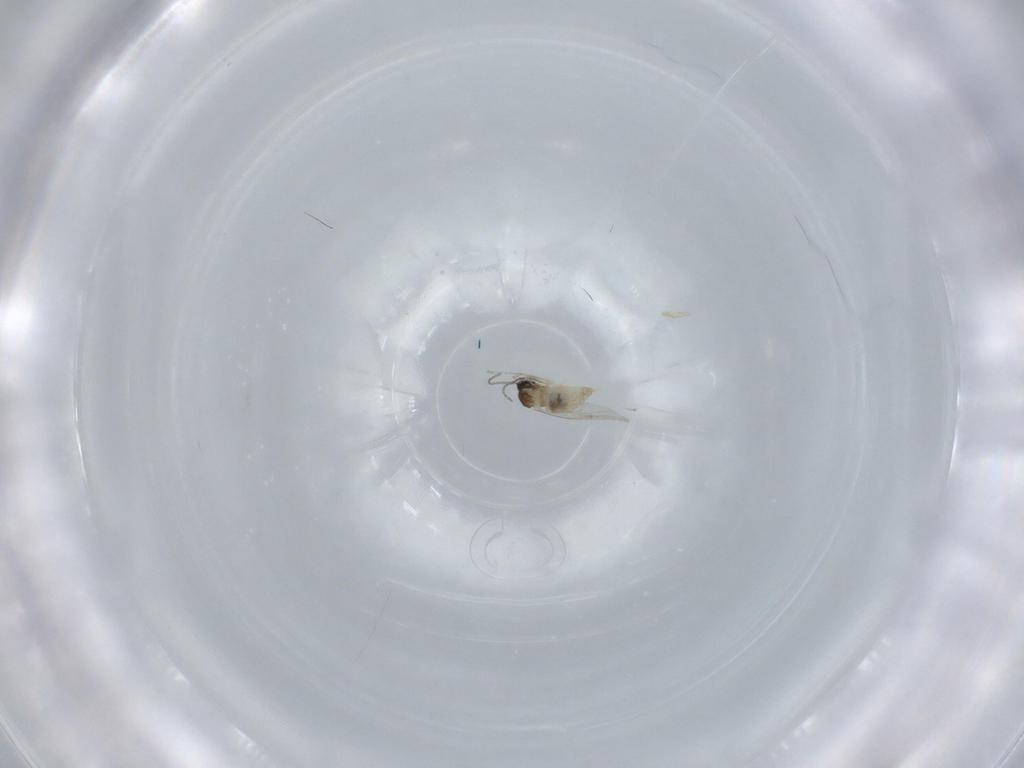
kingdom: Animalia
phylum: Arthropoda
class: Insecta
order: Diptera
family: Cecidomyiidae
